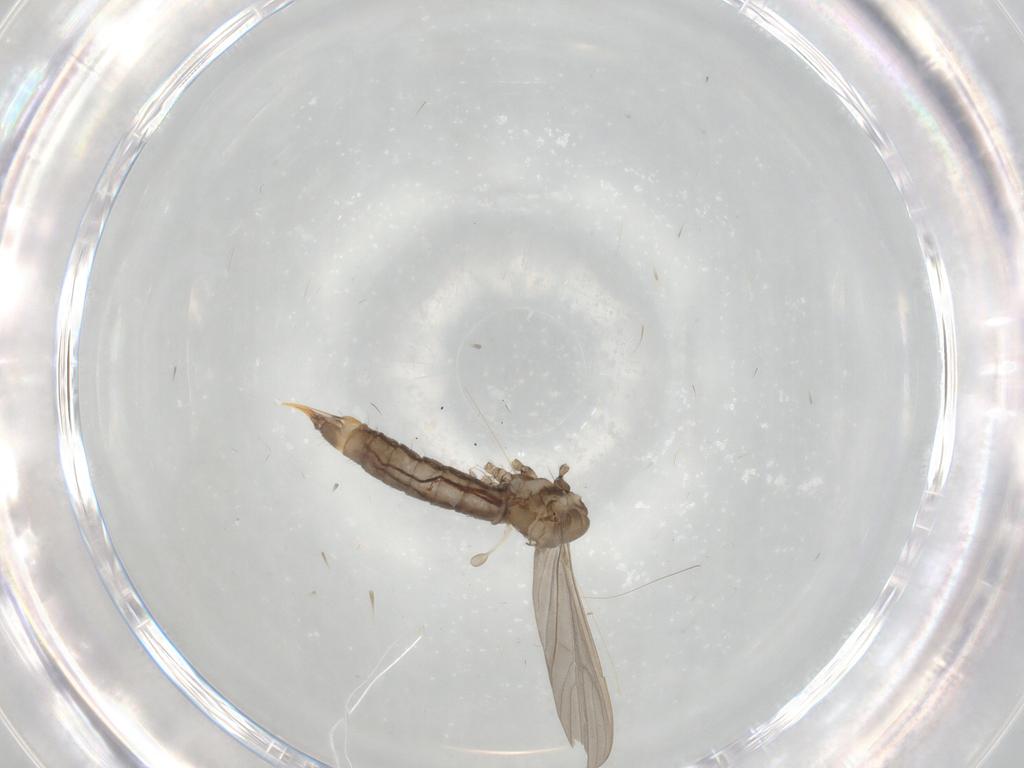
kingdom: Animalia
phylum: Arthropoda
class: Insecta
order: Diptera
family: Limoniidae
